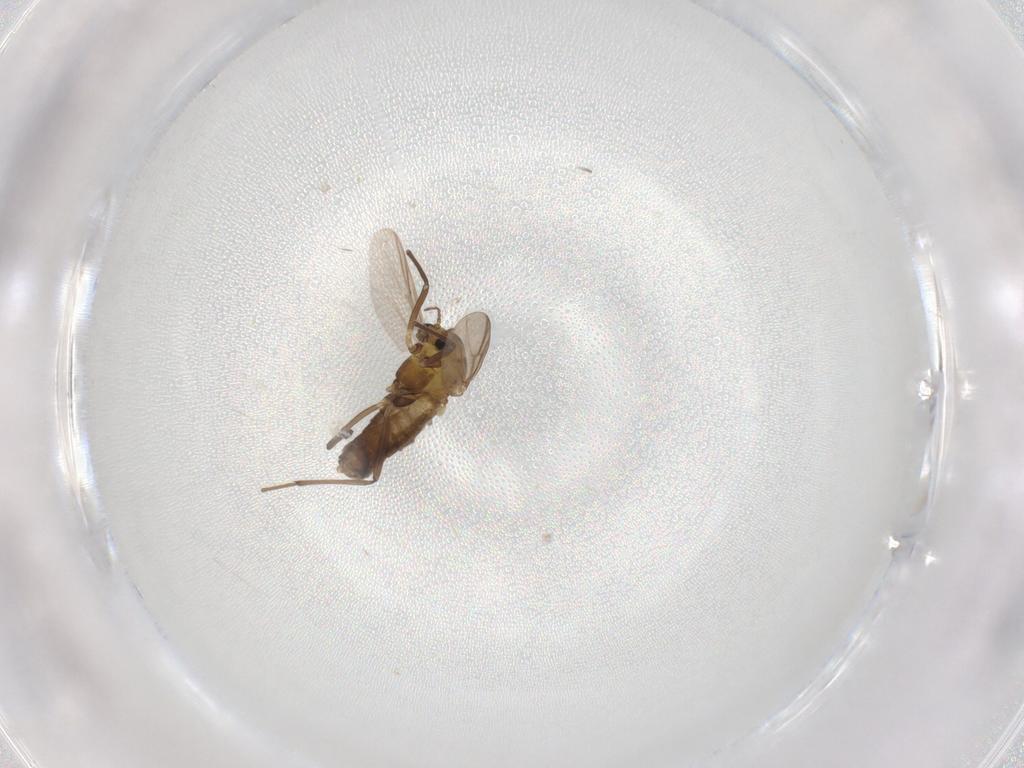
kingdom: Animalia
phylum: Arthropoda
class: Insecta
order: Diptera
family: Chironomidae
